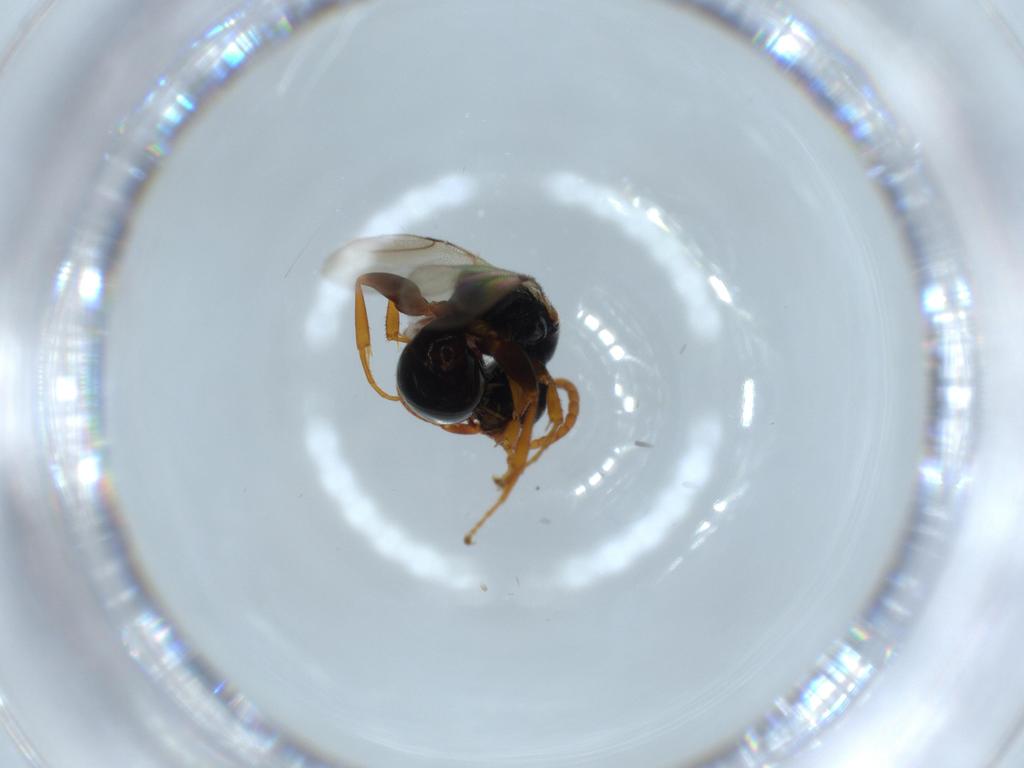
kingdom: Animalia
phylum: Arthropoda
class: Insecta
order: Hymenoptera
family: Bethylidae
